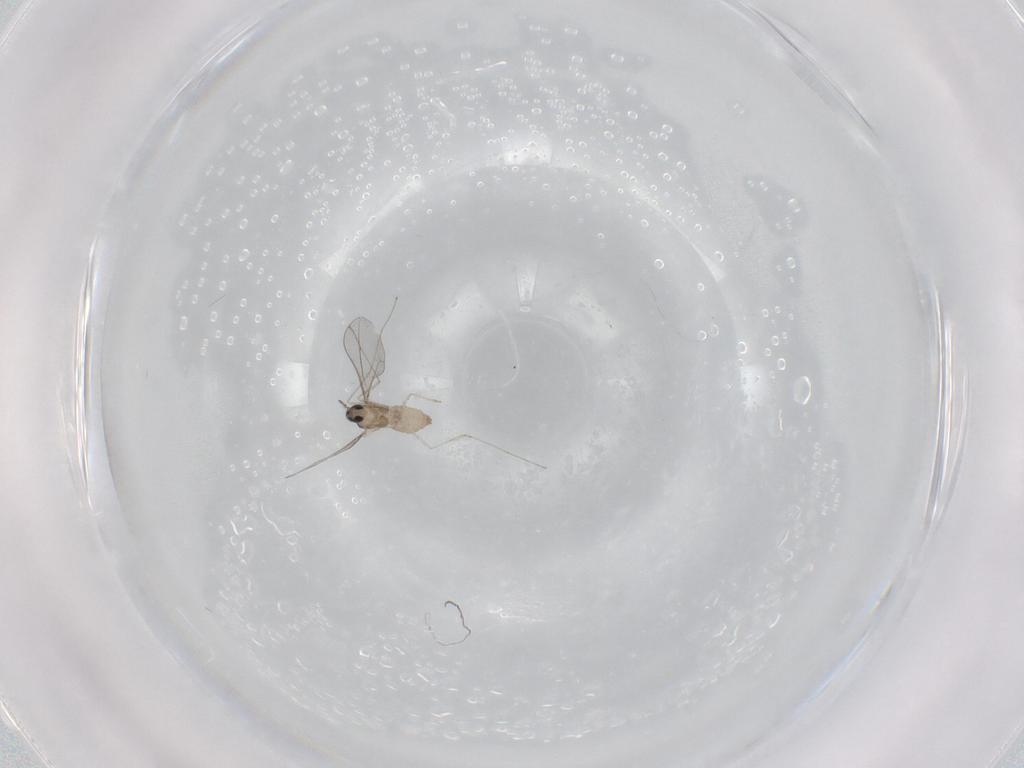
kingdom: Animalia
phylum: Arthropoda
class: Insecta
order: Diptera
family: Cecidomyiidae
